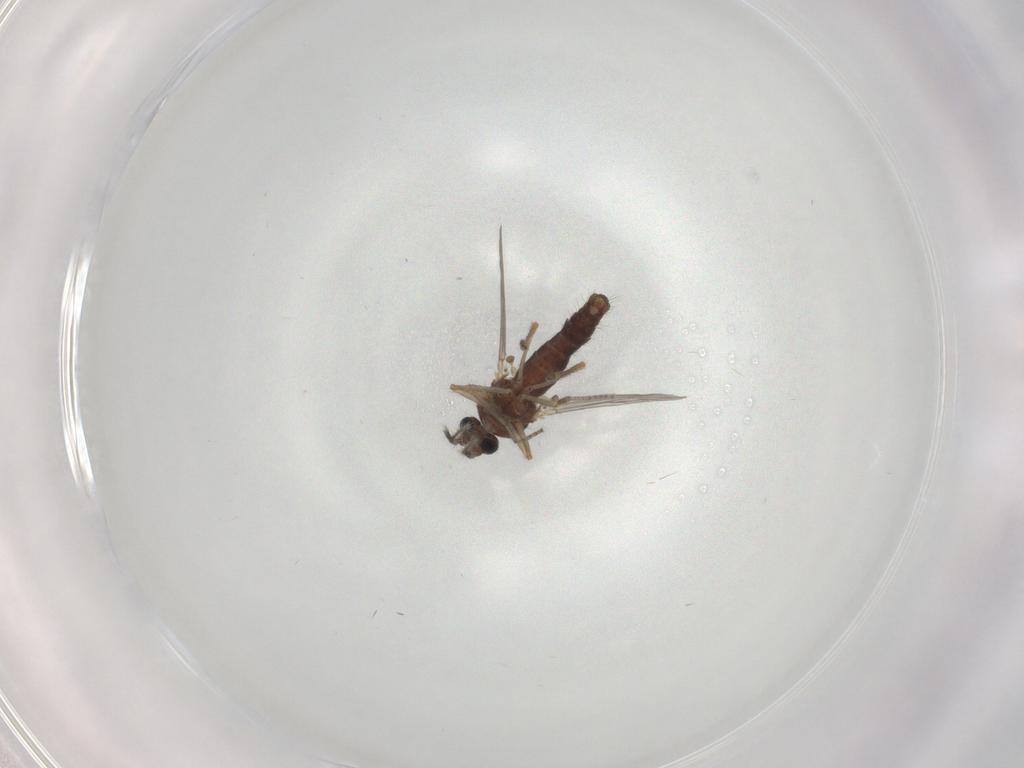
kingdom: Animalia
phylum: Arthropoda
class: Insecta
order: Diptera
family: Ceratopogonidae
